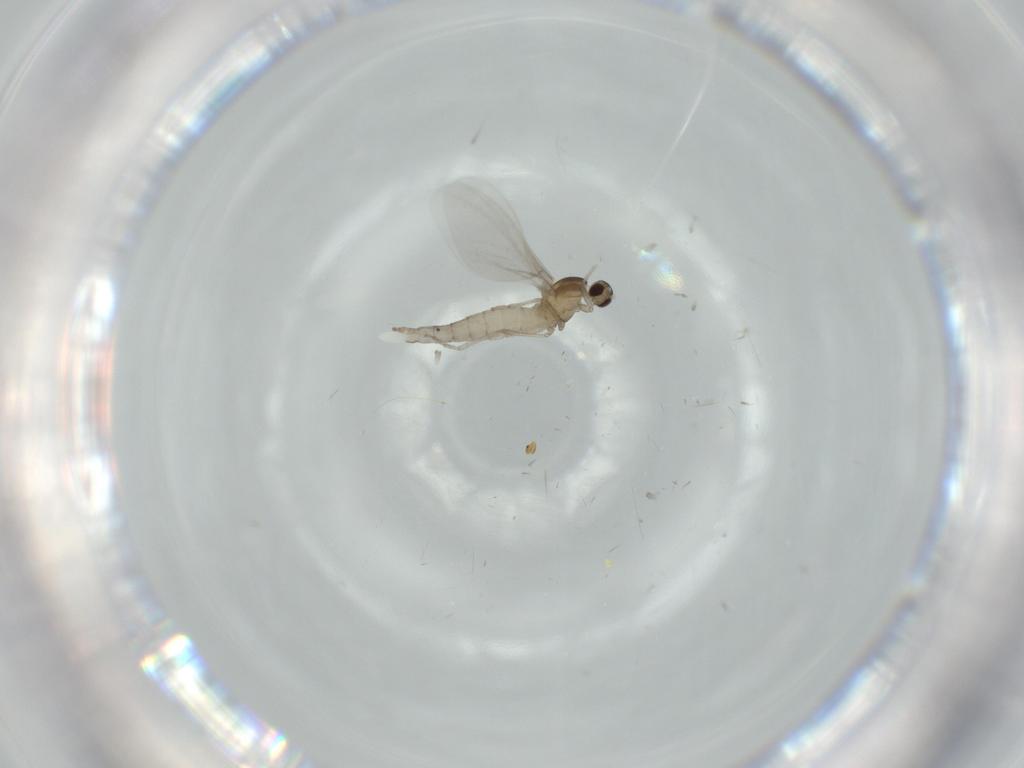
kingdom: Animalia
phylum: Arthropoda
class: Insecta
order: Diptera
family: Cecidomyiidae
